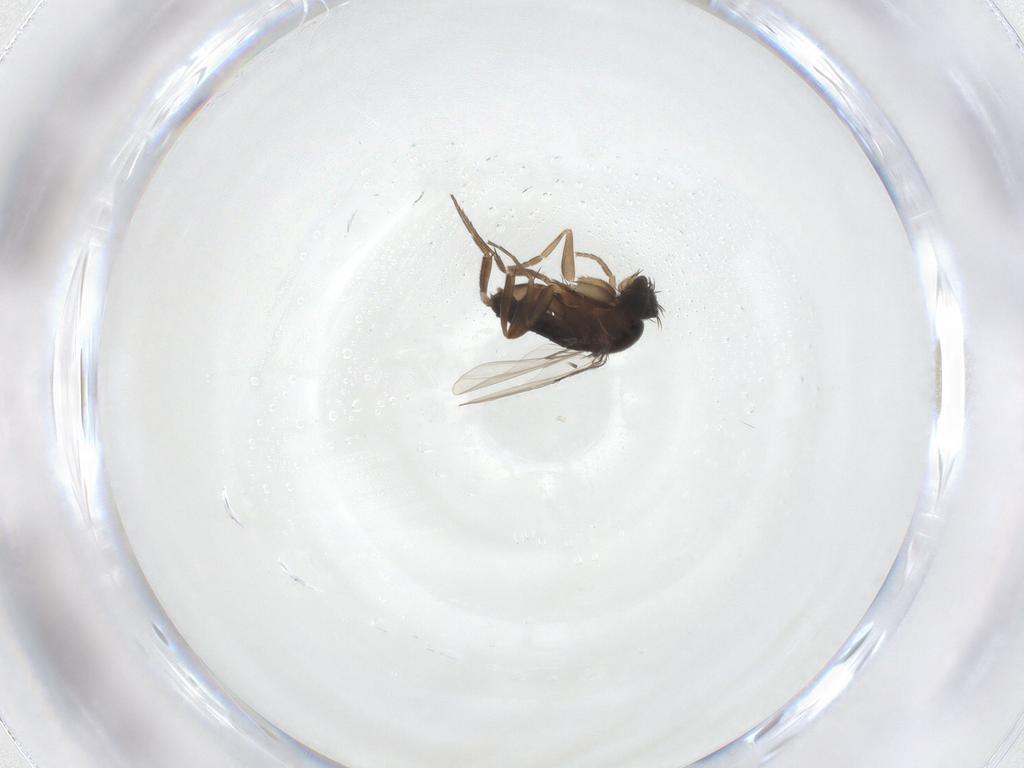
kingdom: Animalia
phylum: Arthropoda
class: Insecta
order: Diptera
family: Phoridae
